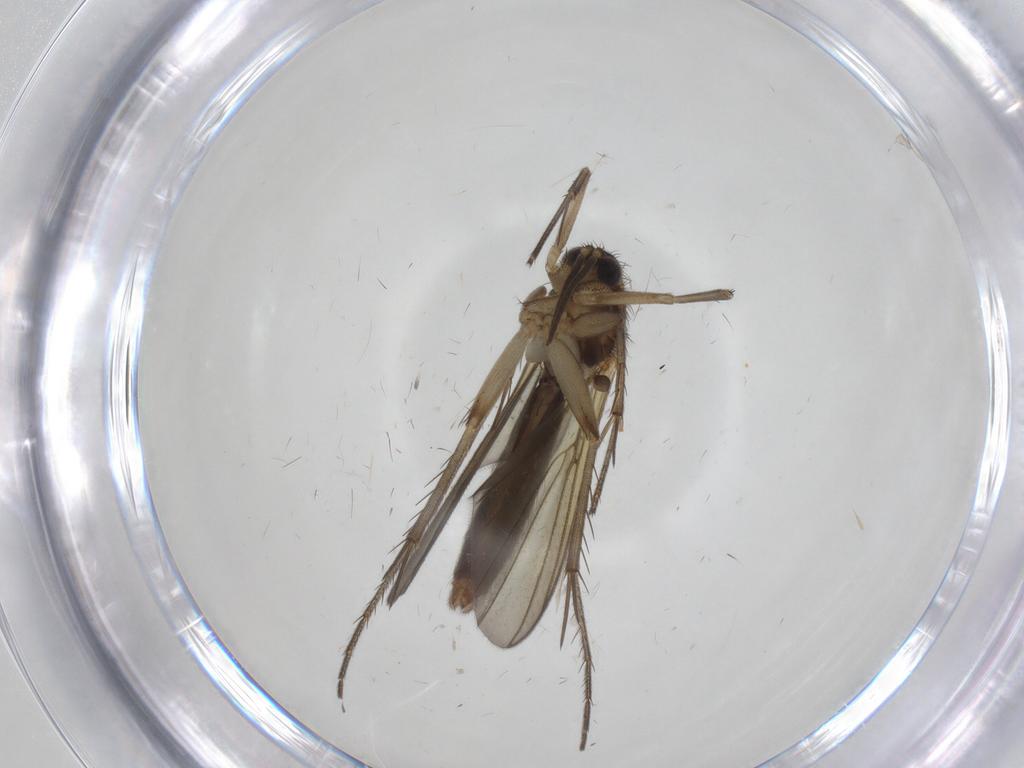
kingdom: Animalia
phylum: Arthropoda
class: Insecta
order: Diptera
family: Mycetophilidae
